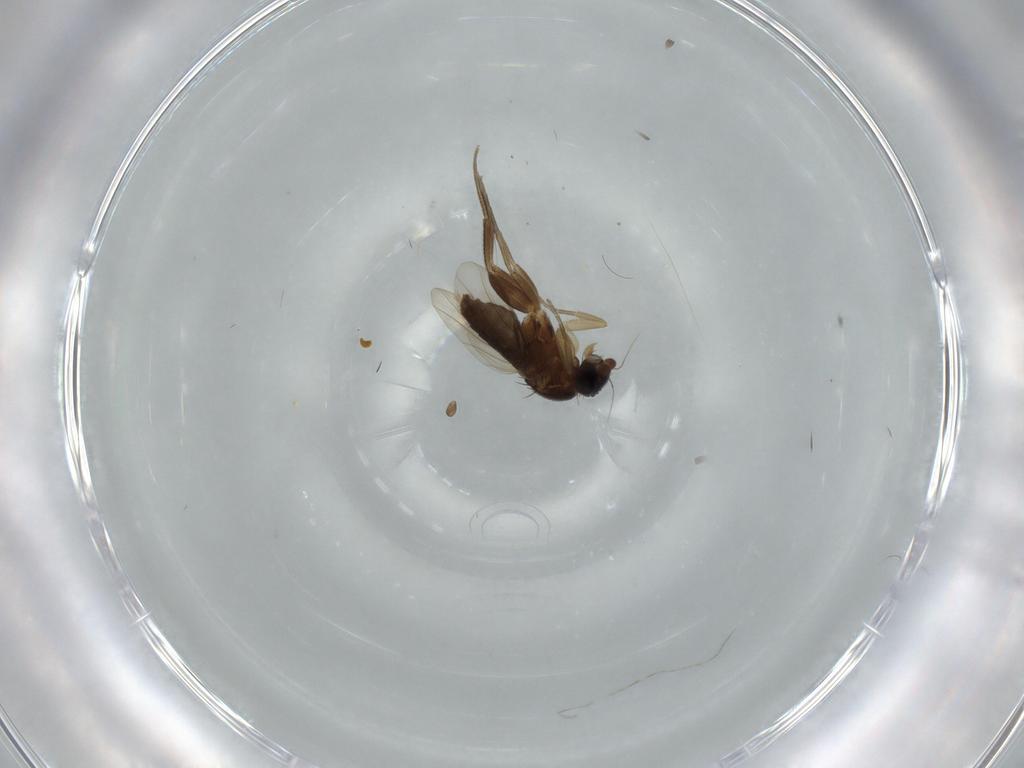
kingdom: Animalia
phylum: Arthropoda
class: Insecta
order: Diptera
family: Phoridae
